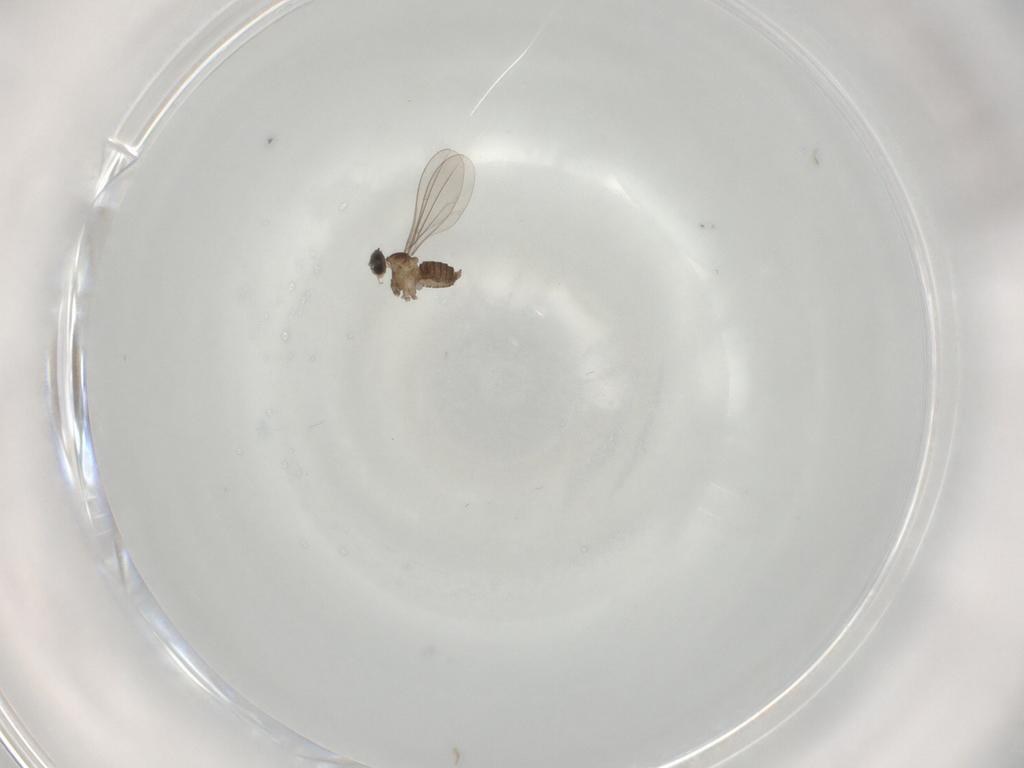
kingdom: Animalia
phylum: Arthropoda
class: Insecta
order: Diptera
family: Cecidomyiidae
